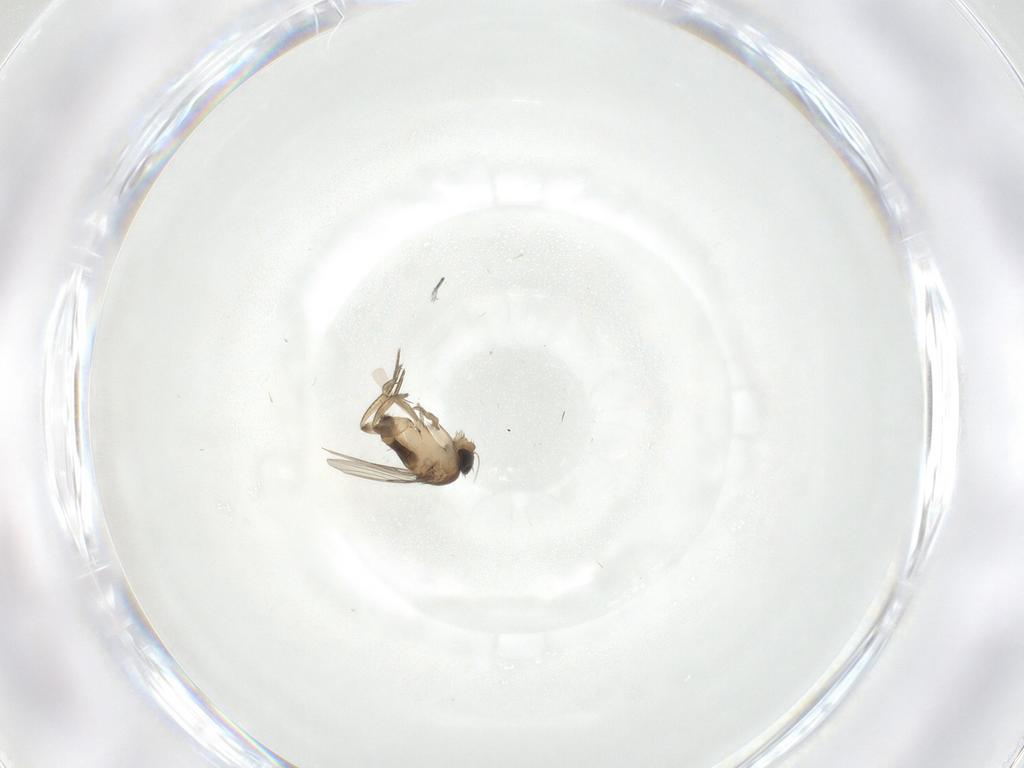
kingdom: Animalia
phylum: Arthropoda
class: Insecta
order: Diptera
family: Phoridae
